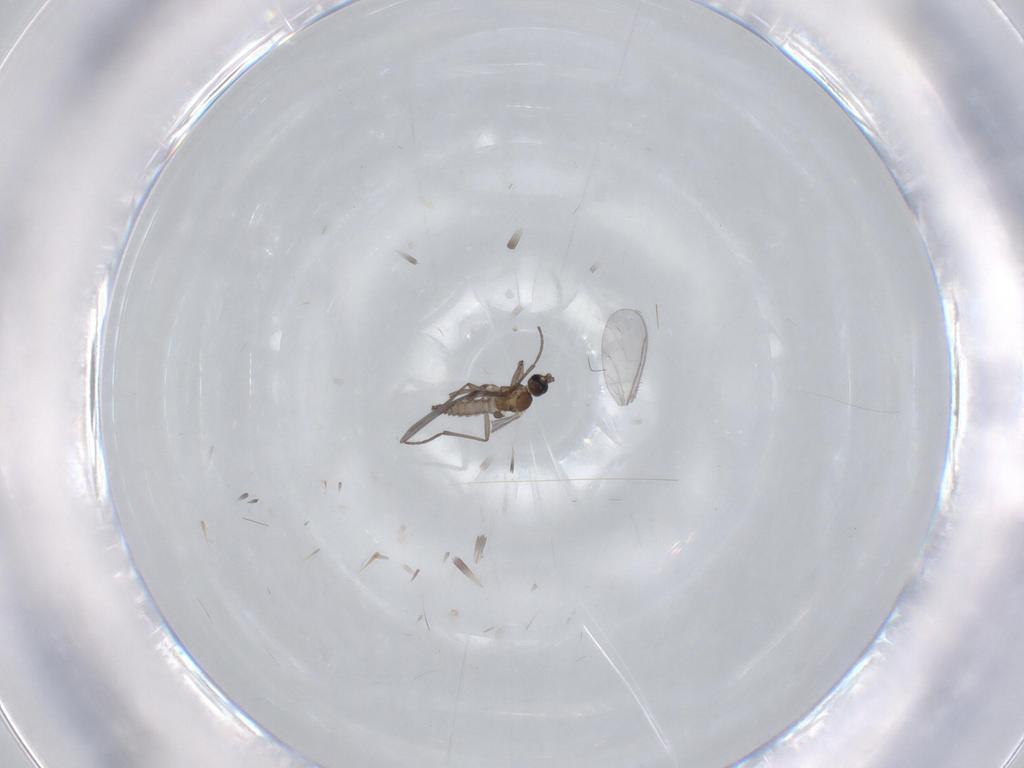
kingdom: Animalia
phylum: Arthropoda
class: Insecta
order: Diptera
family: Sciaridae
